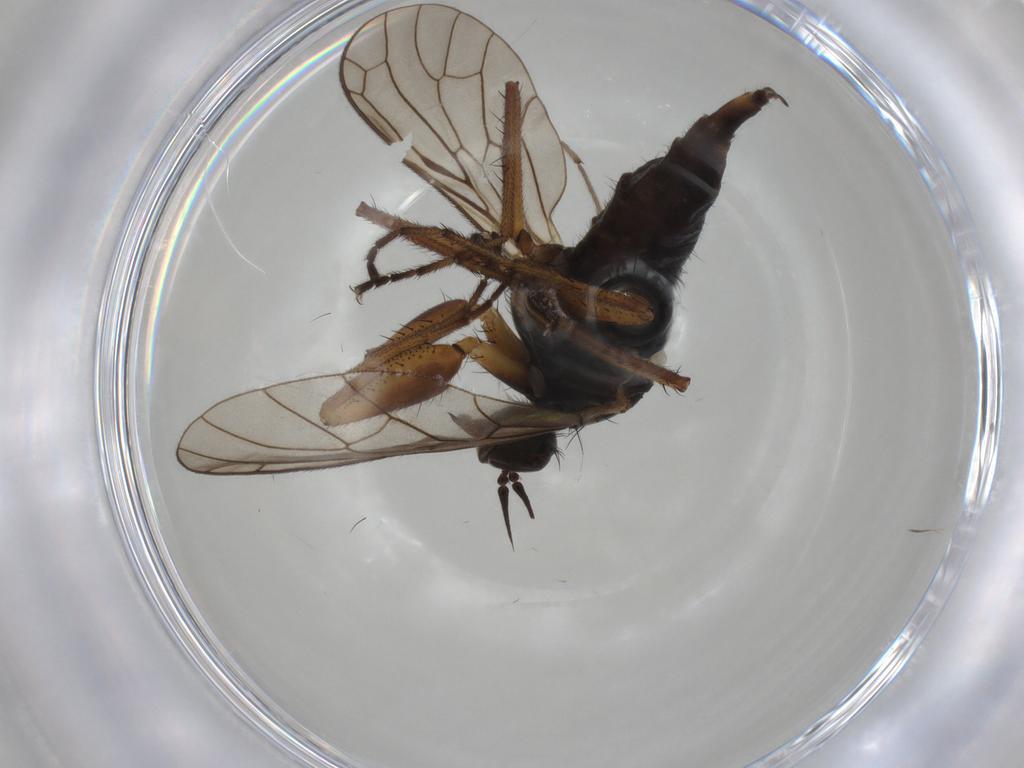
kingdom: Animalia
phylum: Arthropoda
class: Insecta
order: Diptera
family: Chironomidae
